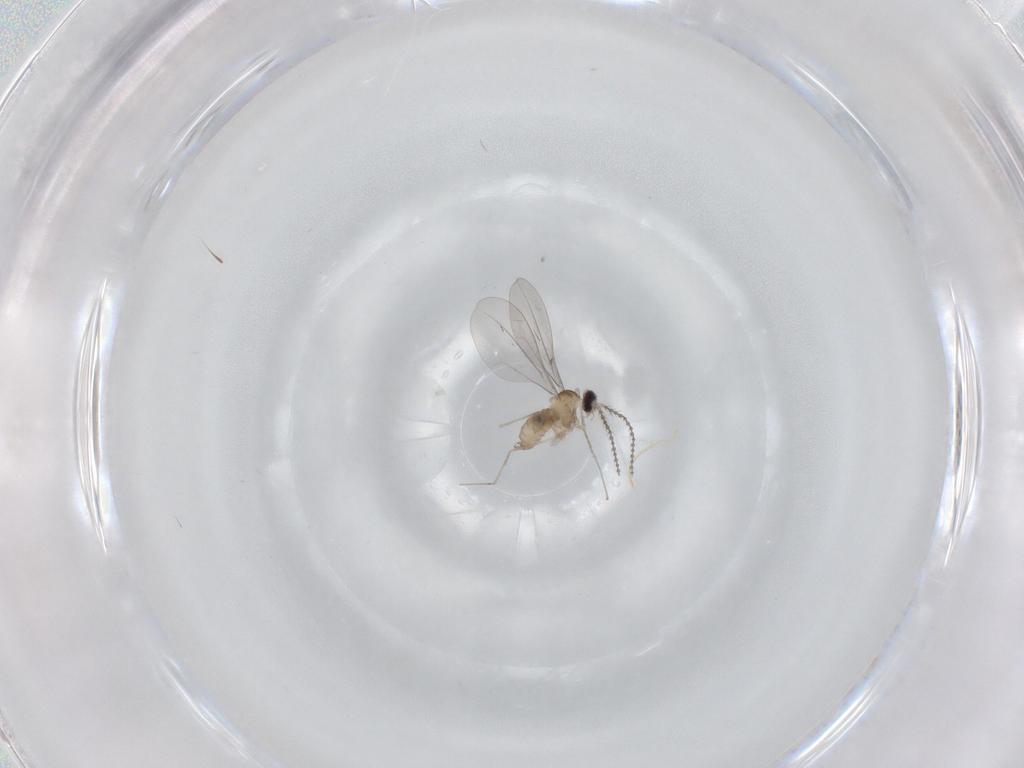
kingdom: Animalia
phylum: Arthropoda
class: Insecta
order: Diptera
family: Cecidomyiidae
